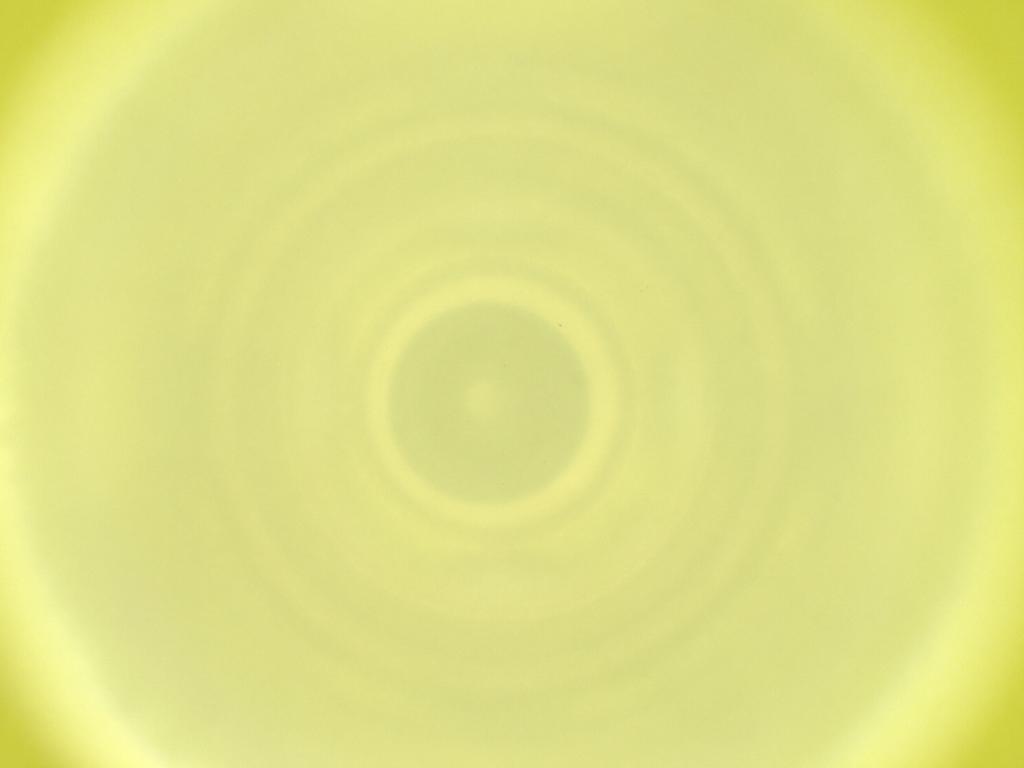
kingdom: Animalia
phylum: Arthropoda
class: Insecta
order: Diptera
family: Cecidomyiidae
